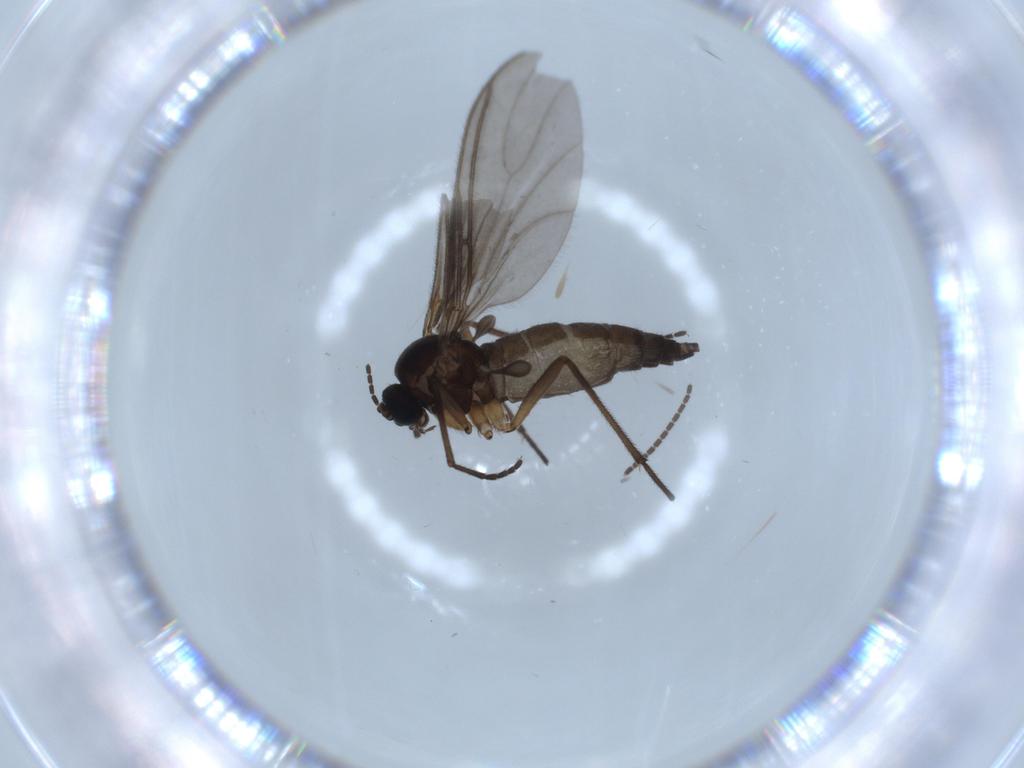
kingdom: Animalia
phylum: Arthropoda
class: Insecta
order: Diptera
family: Sciaridae
